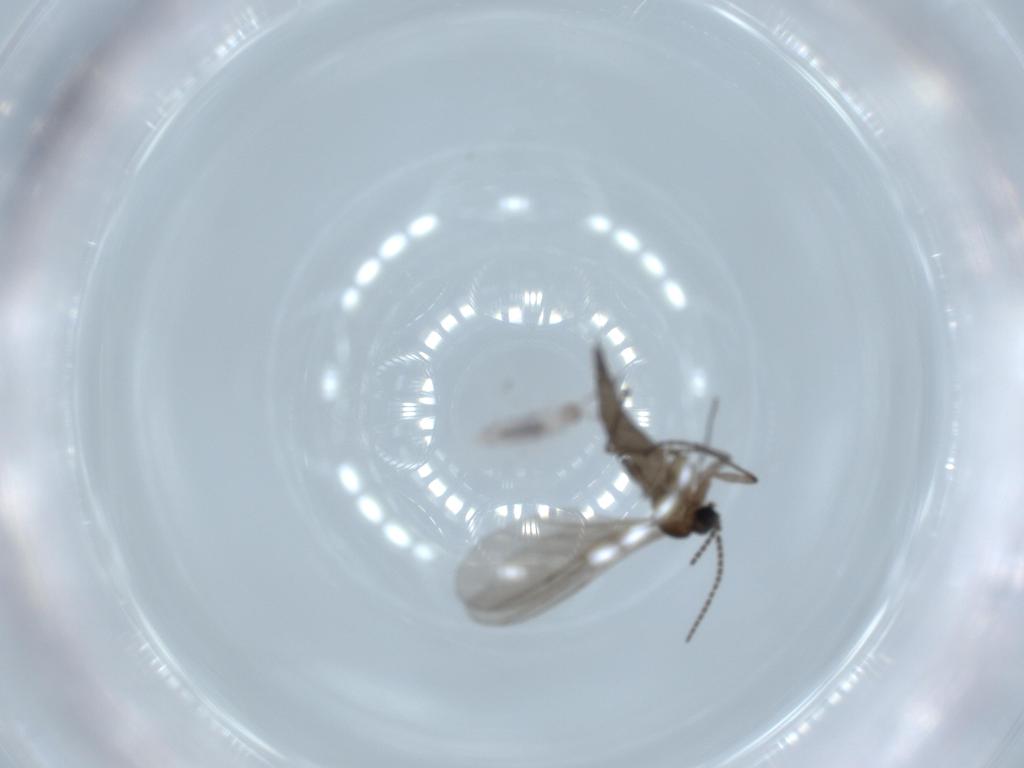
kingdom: Animalia
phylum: Arthropoda
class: Insecta
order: Diptera
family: Sciaridae
